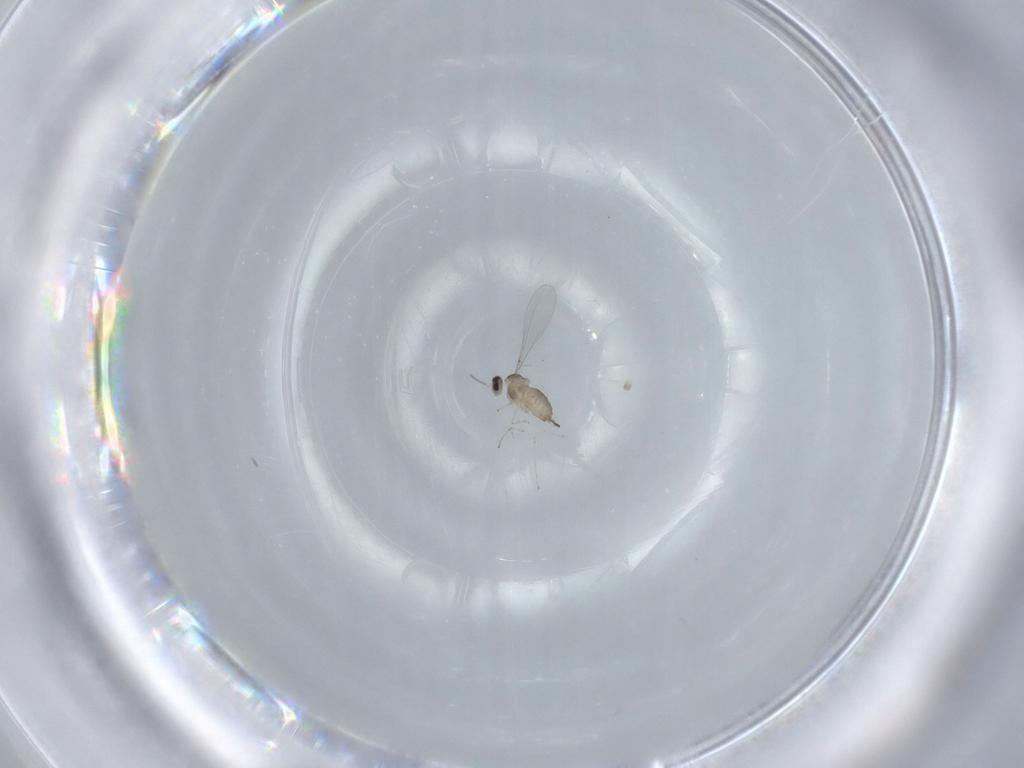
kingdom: Animalia
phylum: Arthropoda
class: Insecta
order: Diptera
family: Cecidomyiidae
